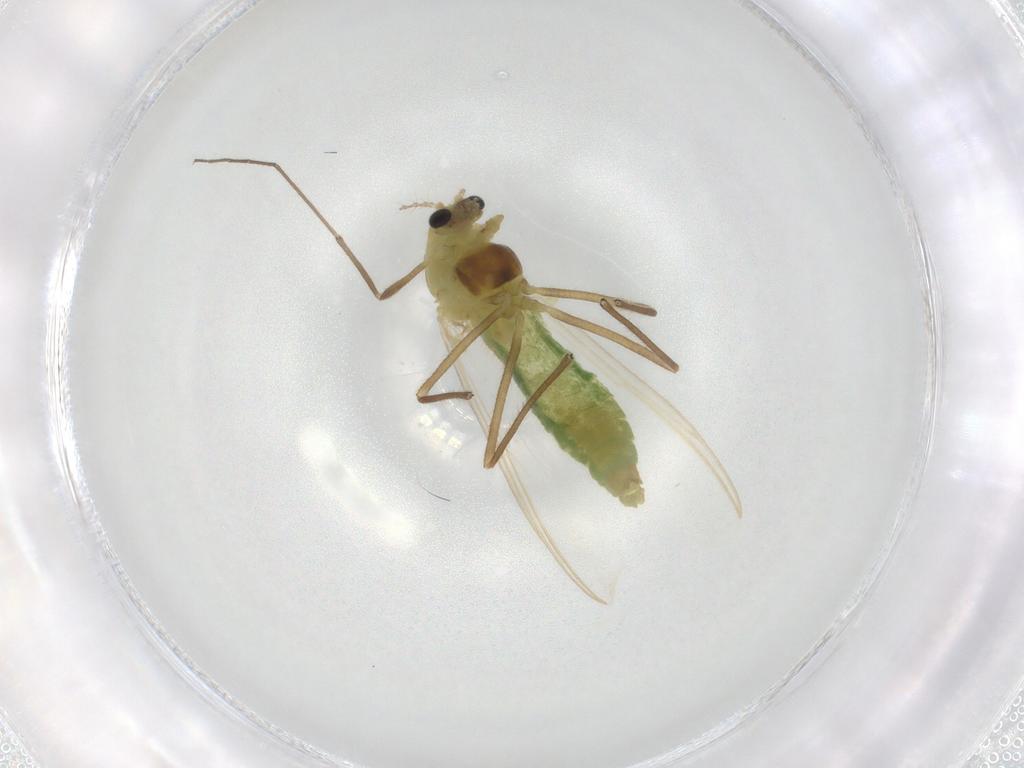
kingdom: Animalia
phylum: Arthropoda
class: Insecta
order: Diptera
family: Chironomidae
